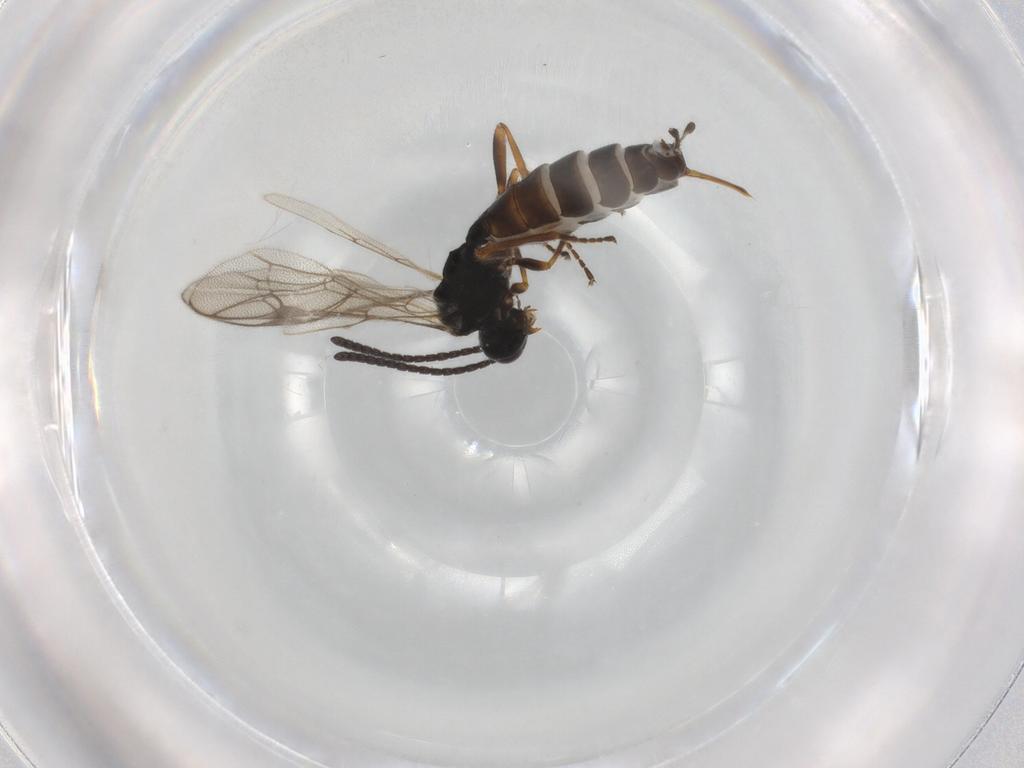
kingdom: Animalia
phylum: Arthropoda
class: Insecta
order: Hymenoptera
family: Ichneumonidae
